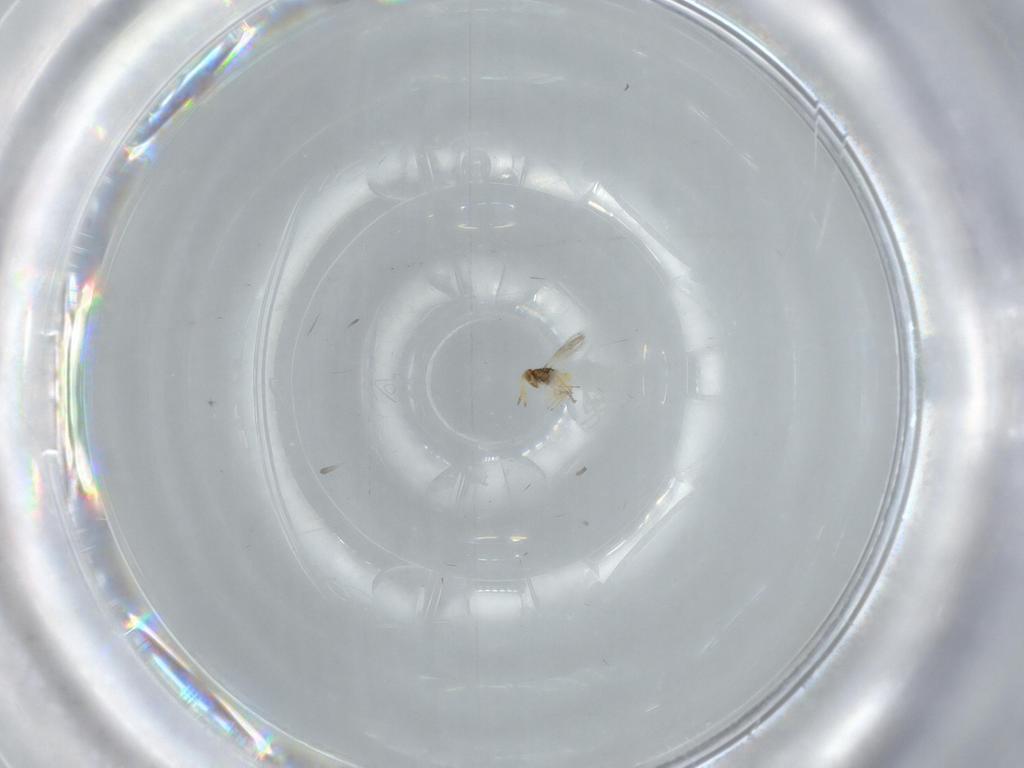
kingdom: Animalia
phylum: Arthropoda
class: Insecta
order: Hymenoptera
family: Aphelinidae
